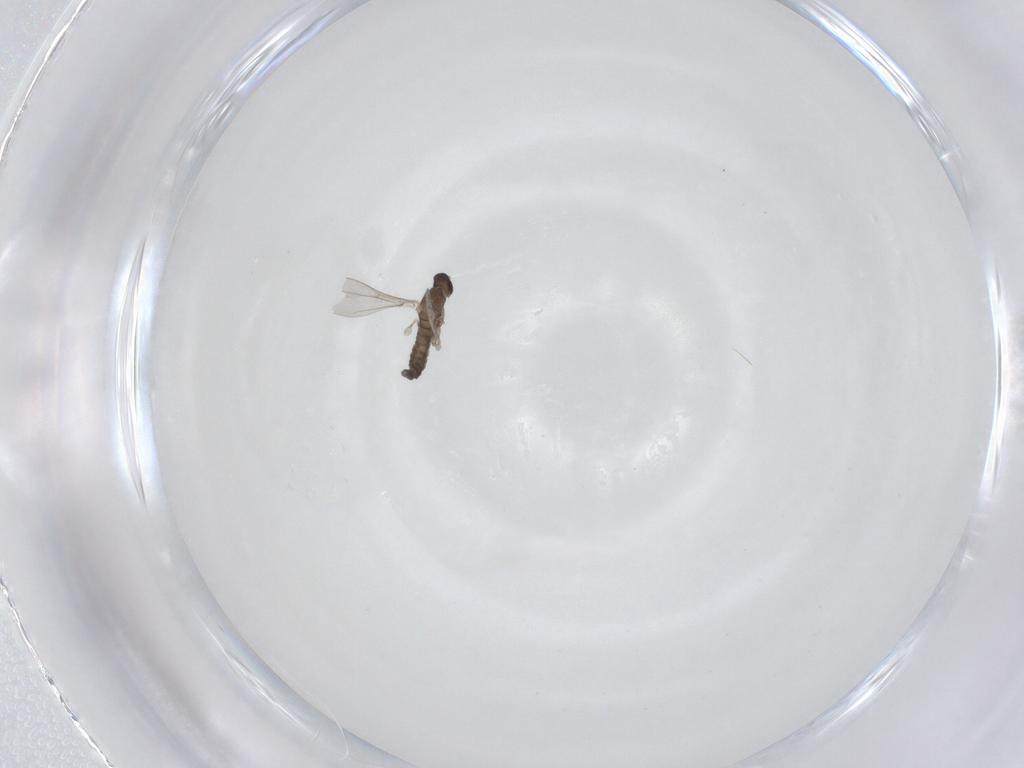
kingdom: Animalia
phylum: Arthropoda
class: Insecta
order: Diptera
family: Cecidomyiidae
